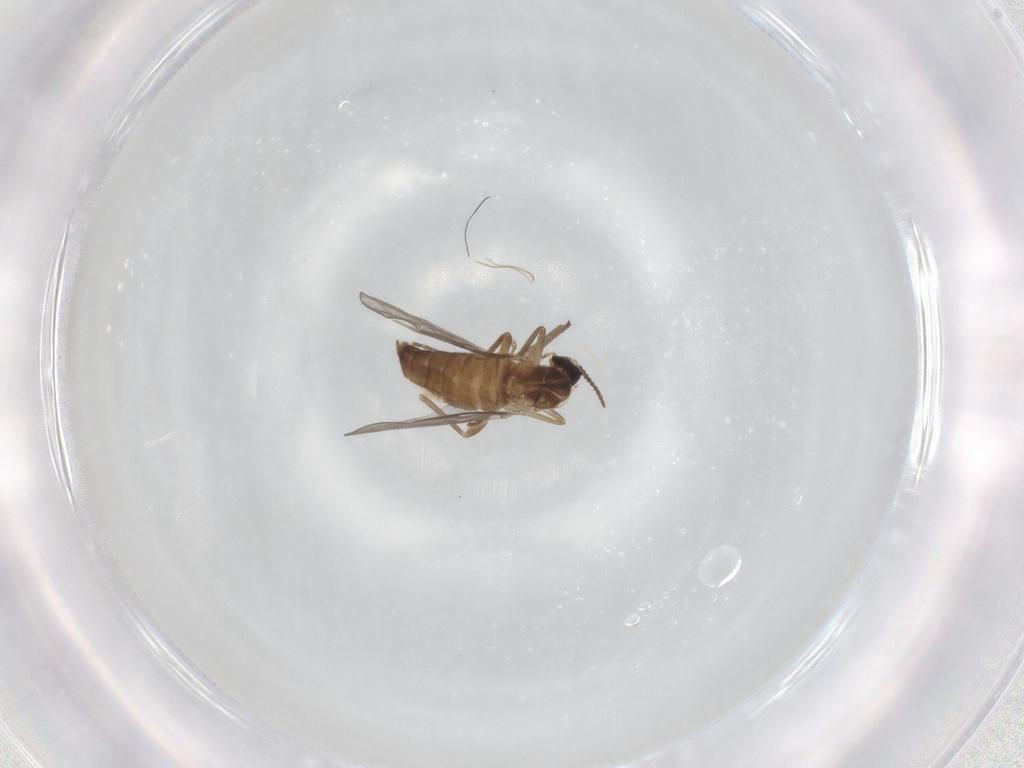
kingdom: Animalia
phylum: Arthropoda
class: Insecta
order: Diptera
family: Cecidomyiidae
